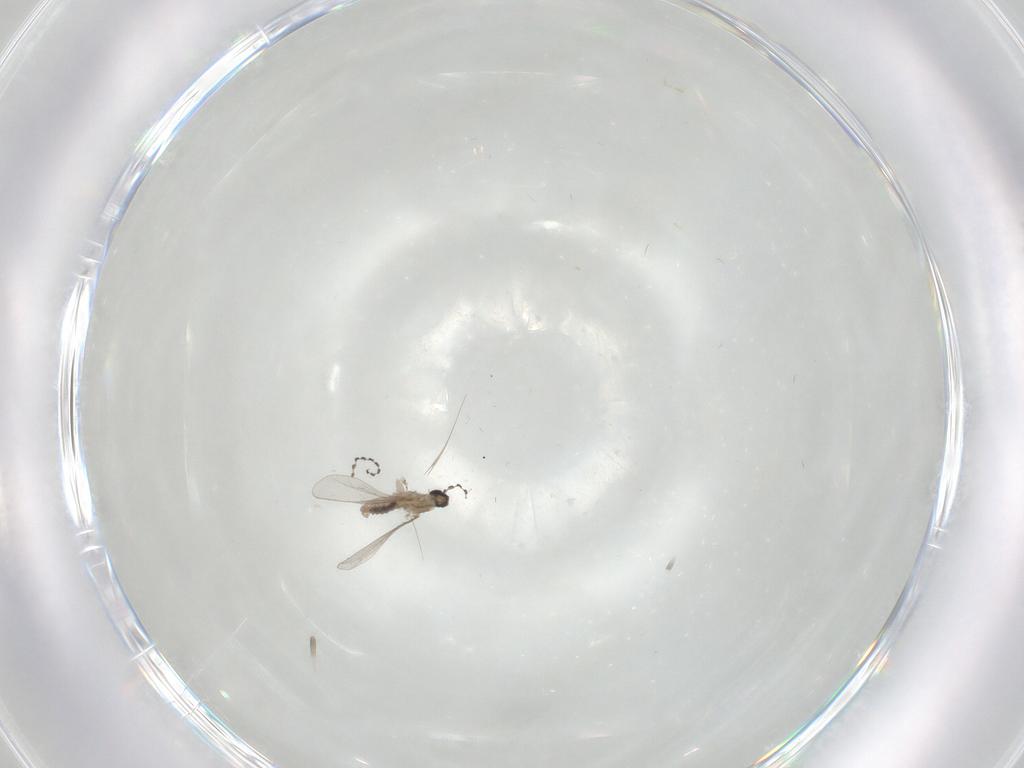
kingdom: Animalia
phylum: Arthropoda
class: Insecta
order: Diptera
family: Cecidomyiidae
